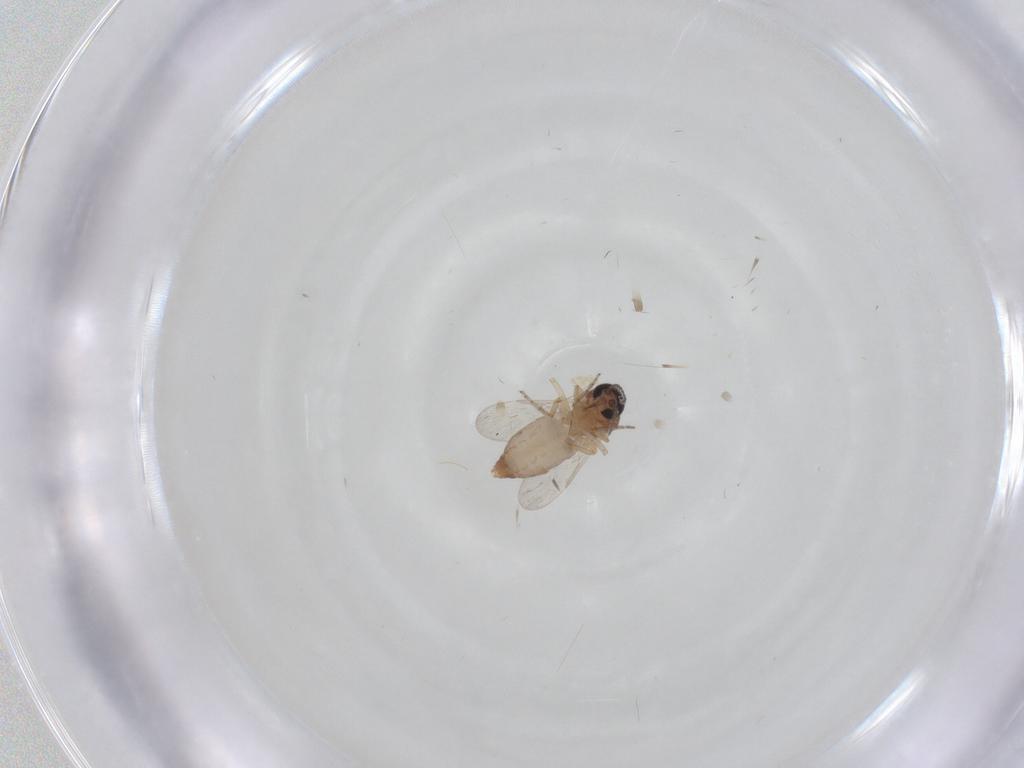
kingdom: Animalia
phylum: Arthropoda
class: Insecta
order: Diptera
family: Ceratopogonidae
